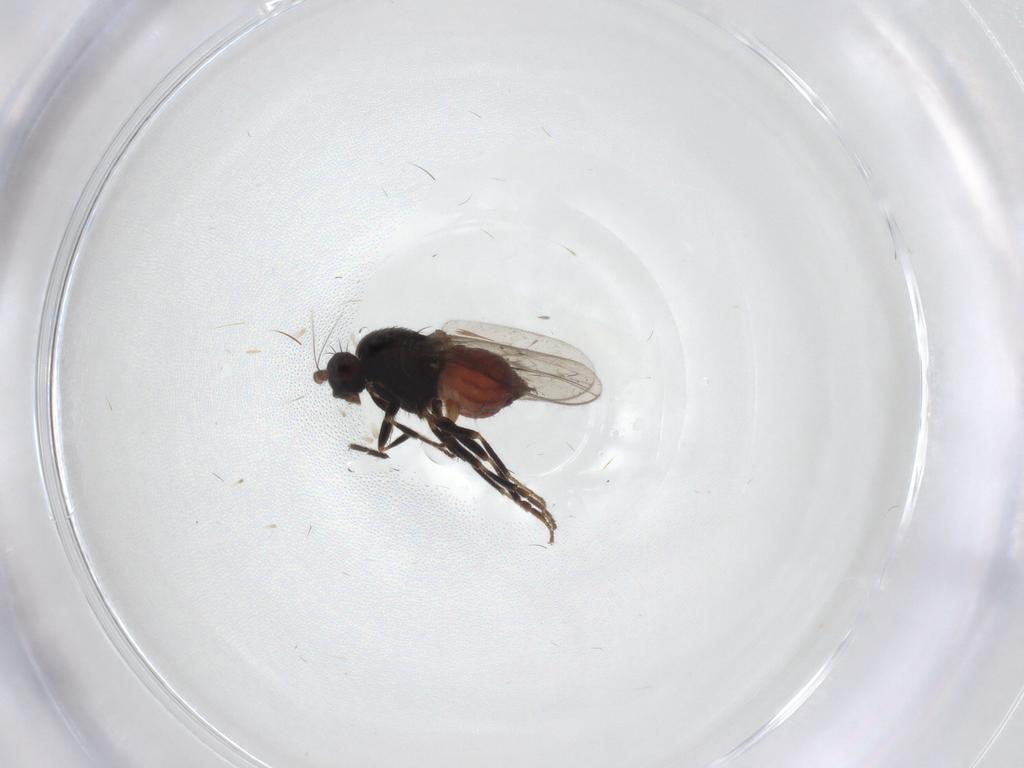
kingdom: Animalia
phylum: Arthropoda
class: Insecta
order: Diptera
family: Sphaeroceridae
